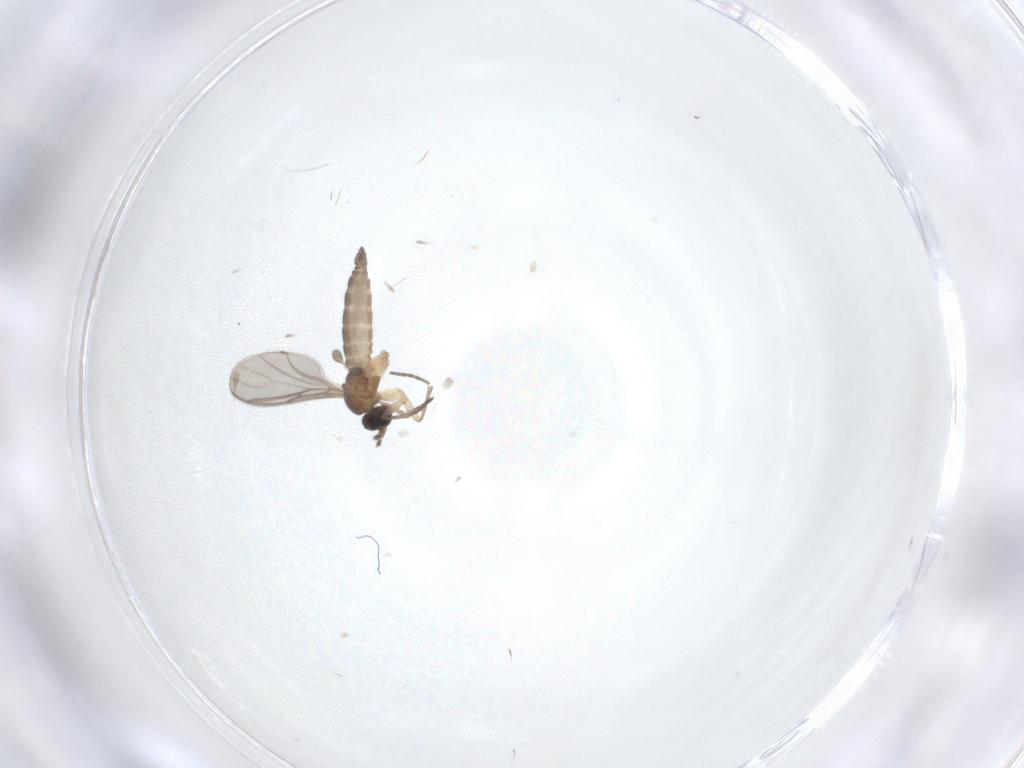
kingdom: Animalia
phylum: Arthropoda
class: Insecta
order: Diptera
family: Sciaridae
